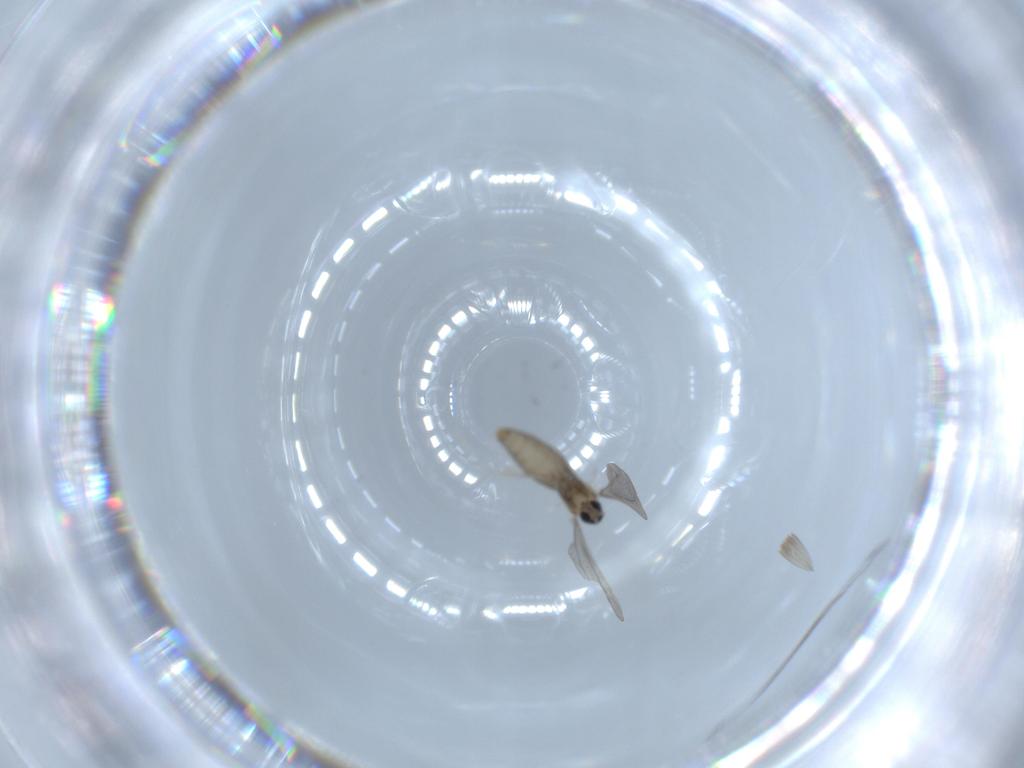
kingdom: Animalia
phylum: Arthropoda
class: Insecta
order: Diptera
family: Cecidomyiidae
